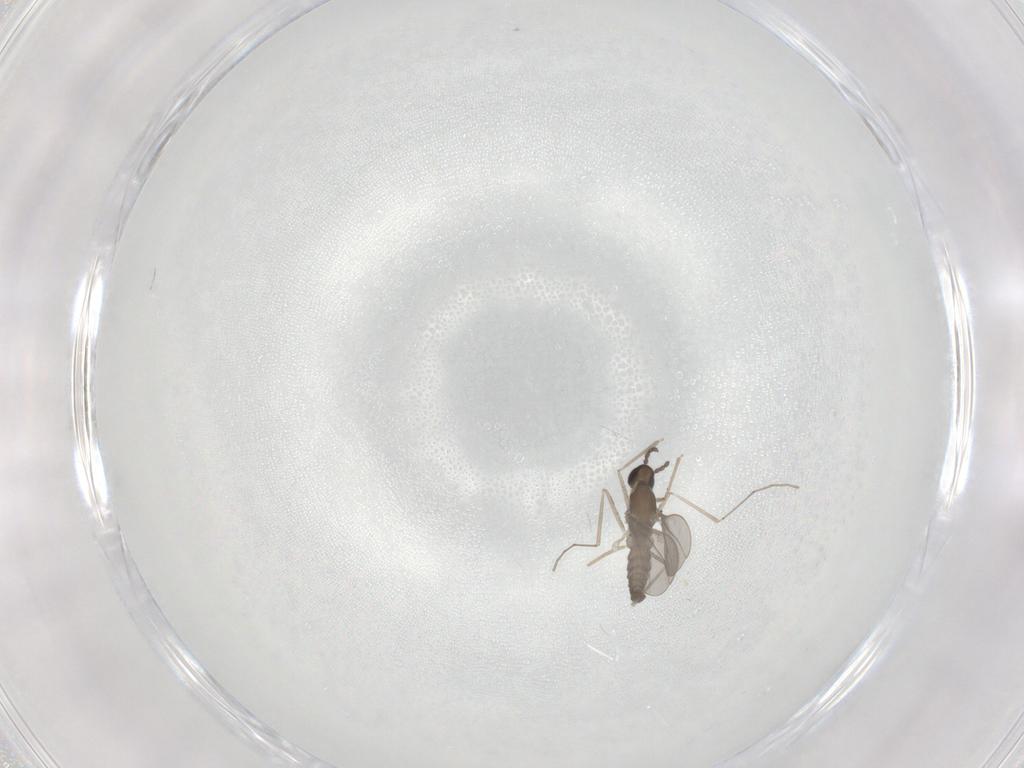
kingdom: Animalia
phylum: Arthropoda
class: Insecta
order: Diptera
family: Cecidomyiidae
